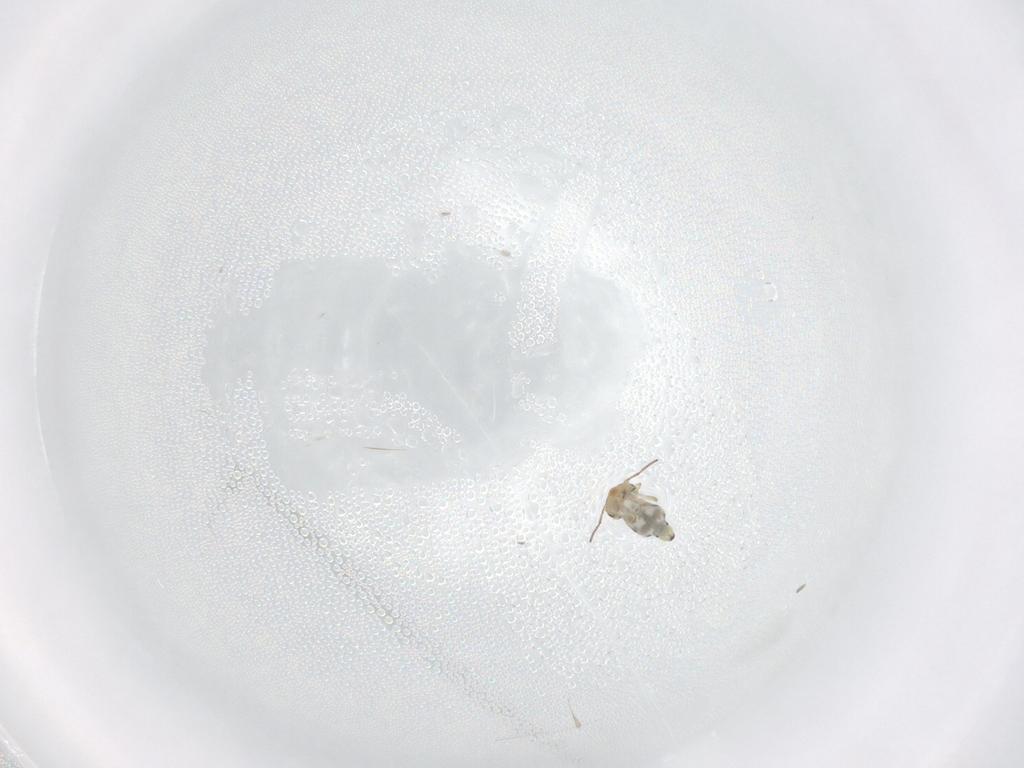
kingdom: Animalia
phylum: Arthropoda
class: Collembola
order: Symphypleona
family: Bourletiellidae
